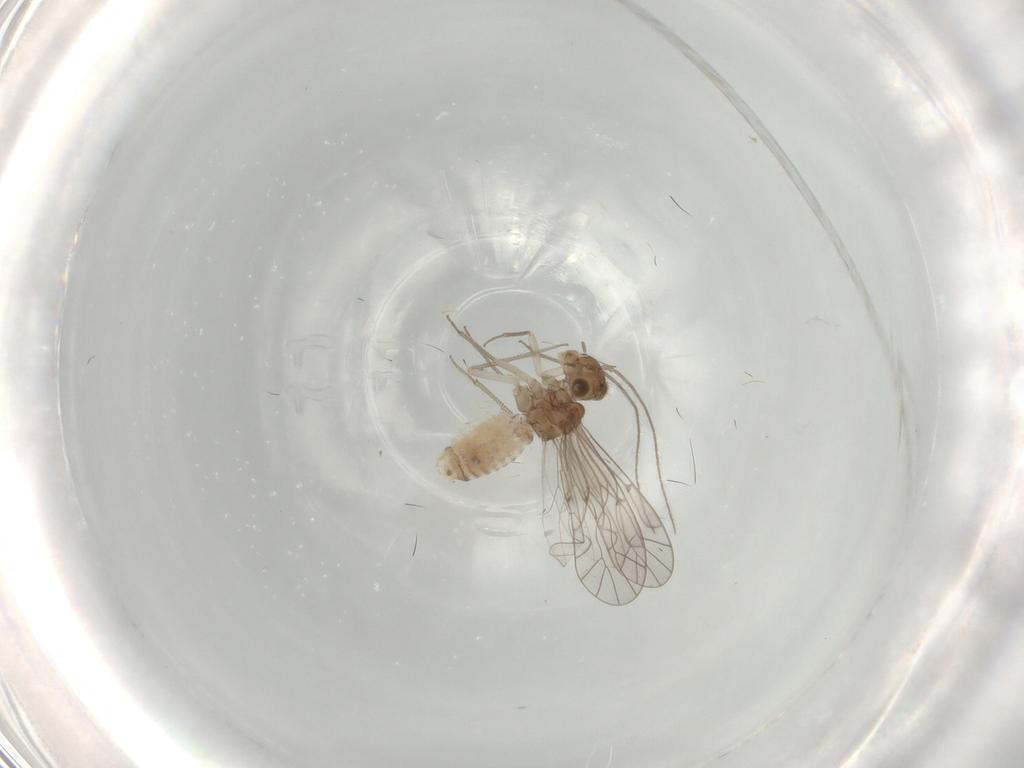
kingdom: Animalia
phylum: Arthropoda
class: Insecta
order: Psocodea
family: Lachesillidae
